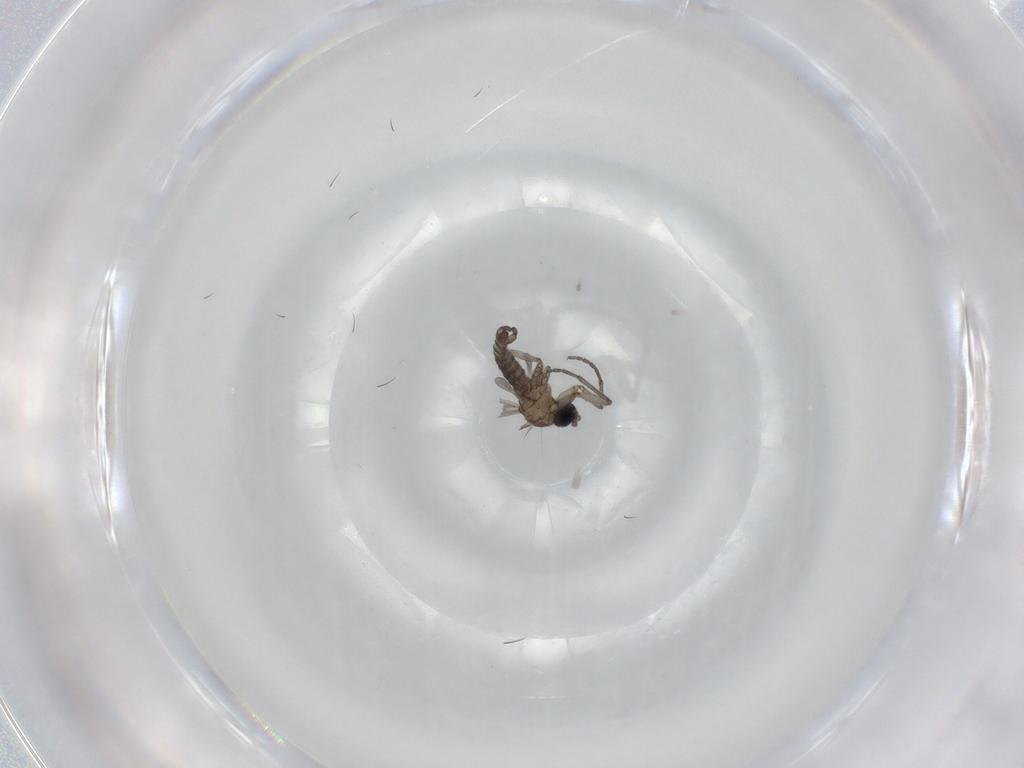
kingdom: Animalia
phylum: Arthropoda
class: Insecta
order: Diptera
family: Sciaridae
